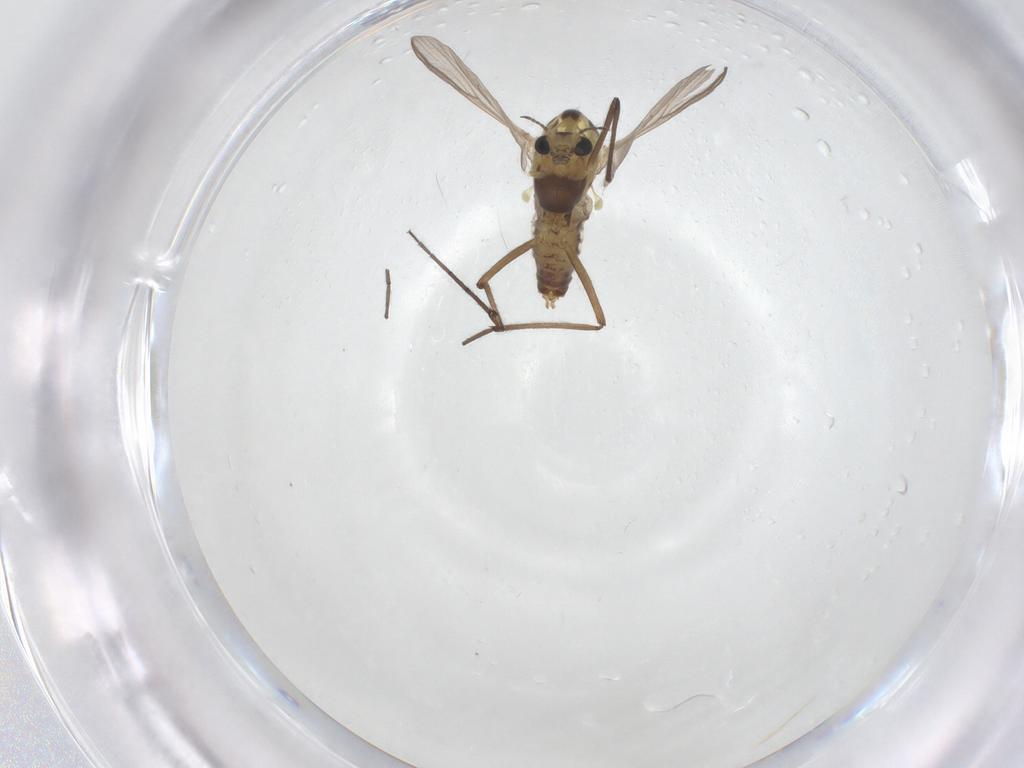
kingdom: Animalia
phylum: Arthropoda
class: Insecta
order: Diptera
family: Chironomidae
